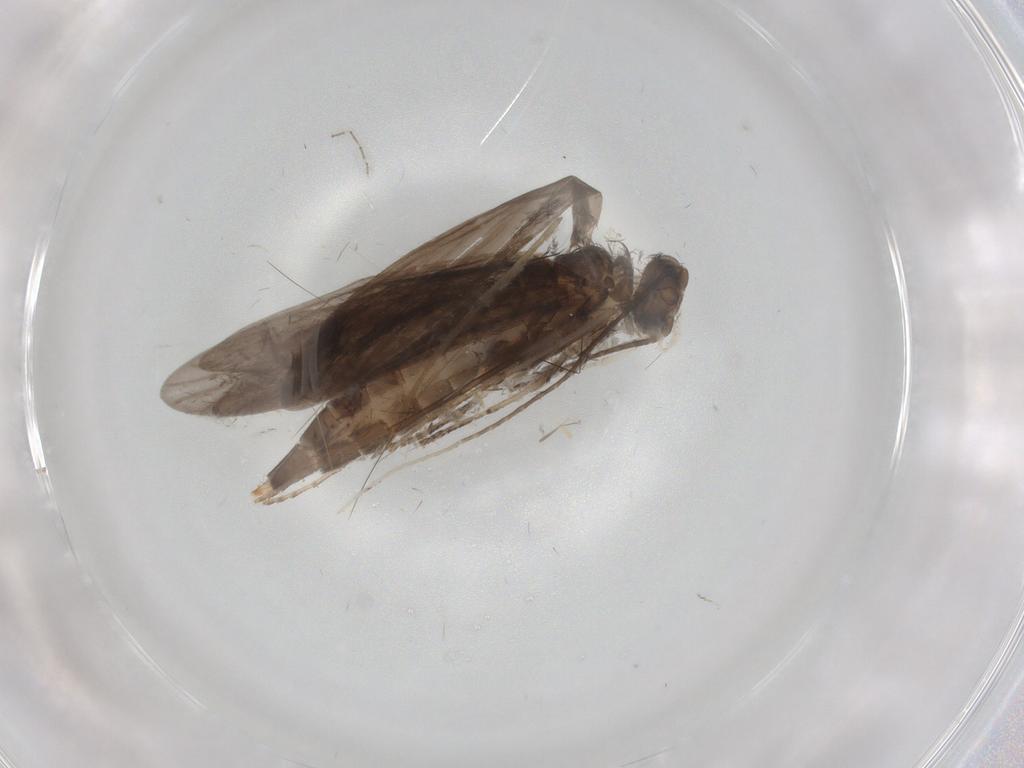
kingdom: Animalia
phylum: Arthropoda
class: Insecta
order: Trichoptera
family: Xiphocentronidae
